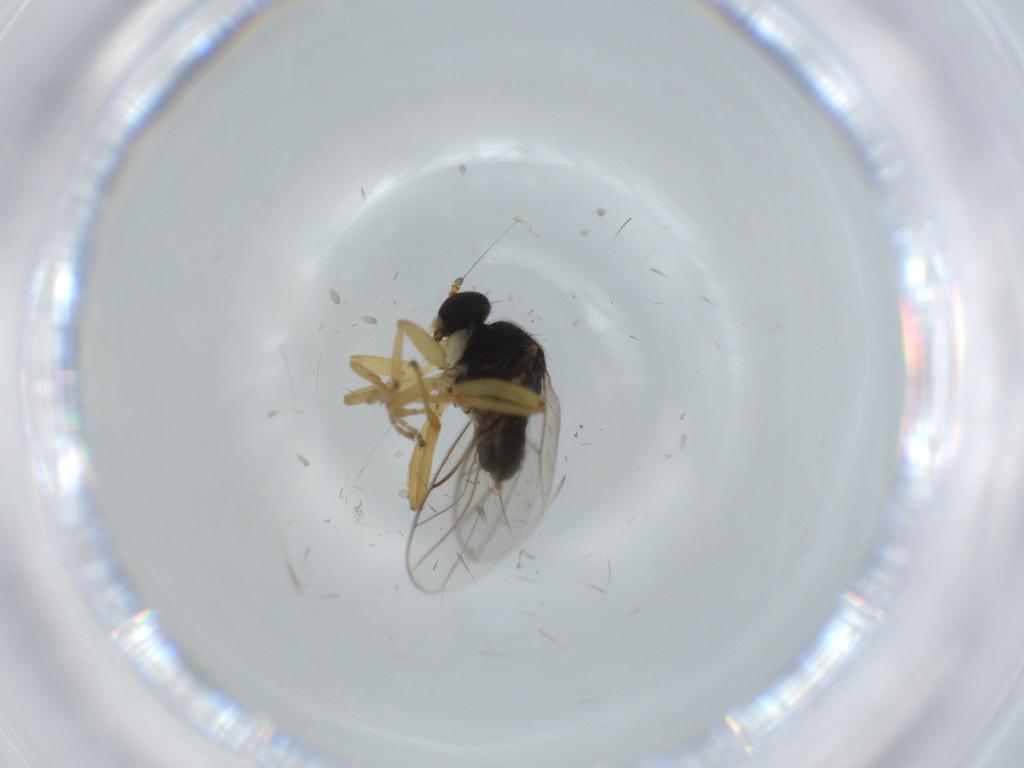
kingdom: Animalia
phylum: Arthropoda
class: Insecta
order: Diptera
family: Hybotidae
